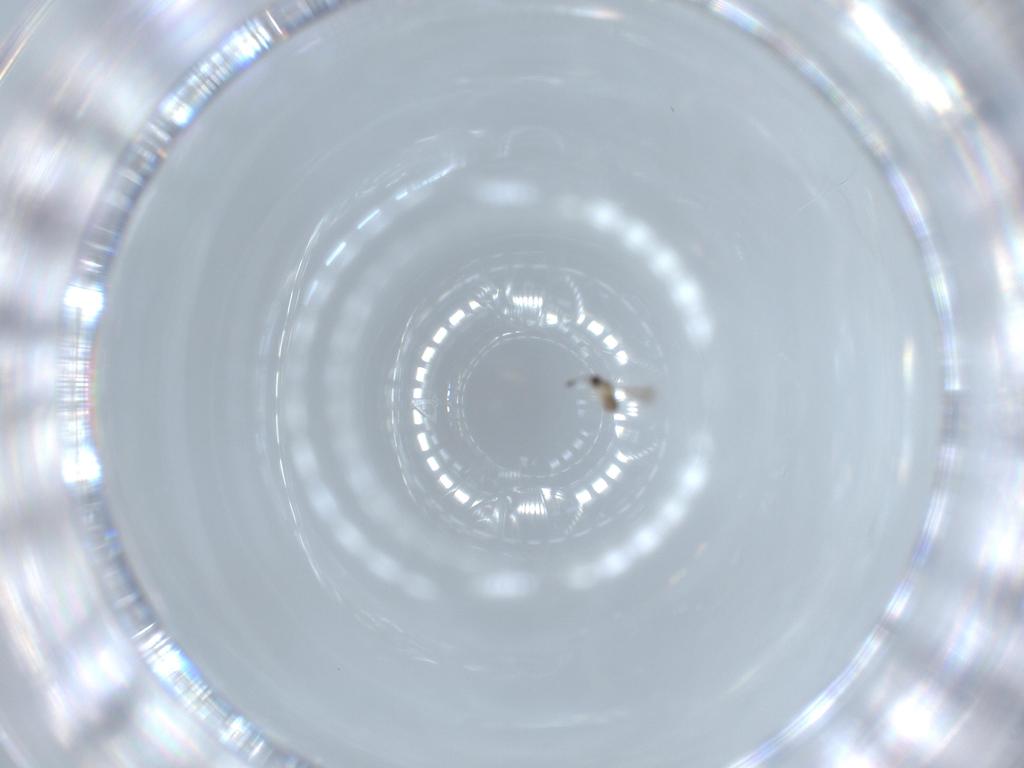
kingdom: Animalia
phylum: Arthropoda
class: Insecta
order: Hymenoptera
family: Mymaridae
